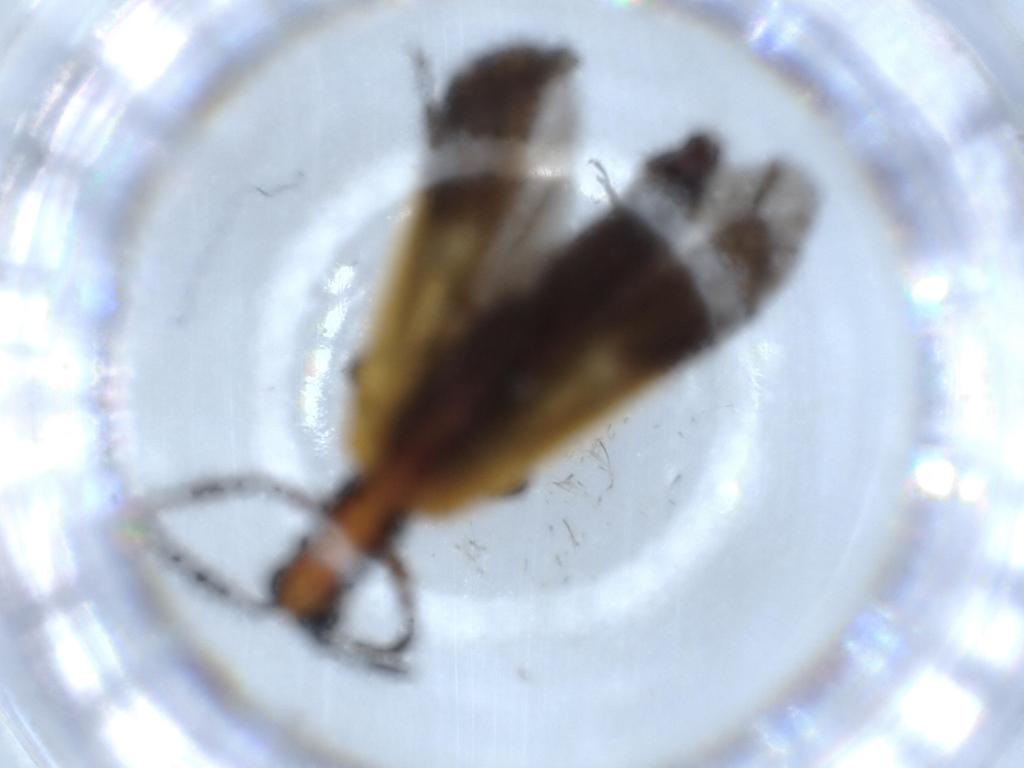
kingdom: Animalia
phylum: Arthropoda
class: Insecta
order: Coleoptera
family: Cleridae
